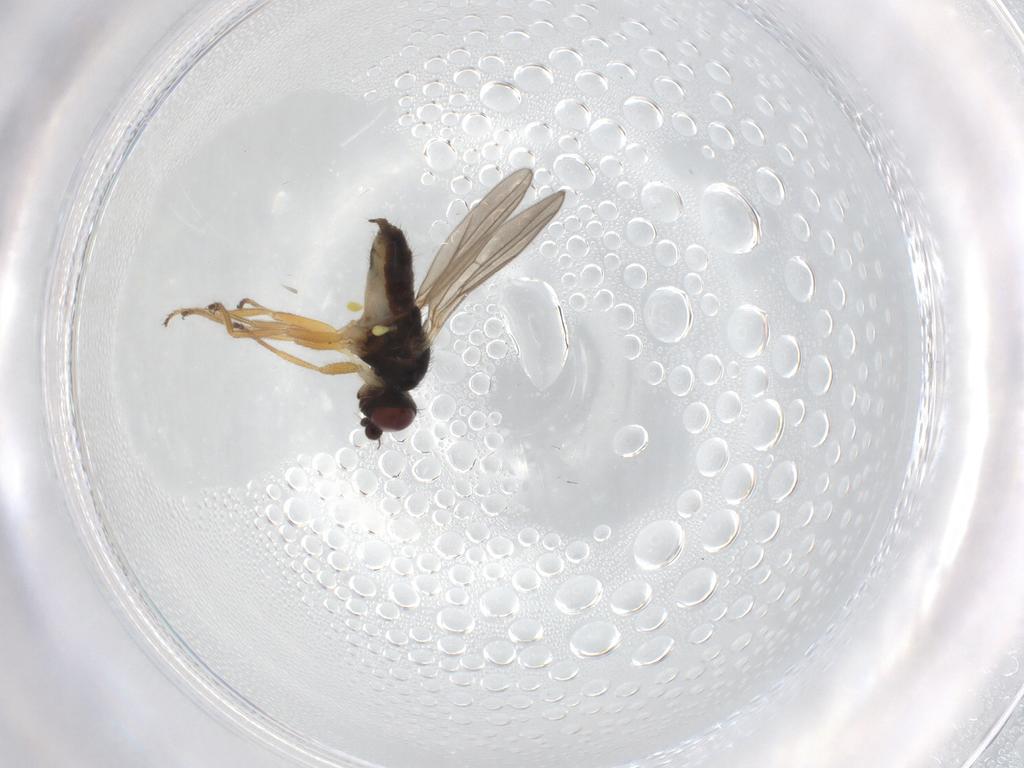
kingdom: Animalia
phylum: Arthropoda
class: Insecta
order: Diptera
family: Chloropidae
